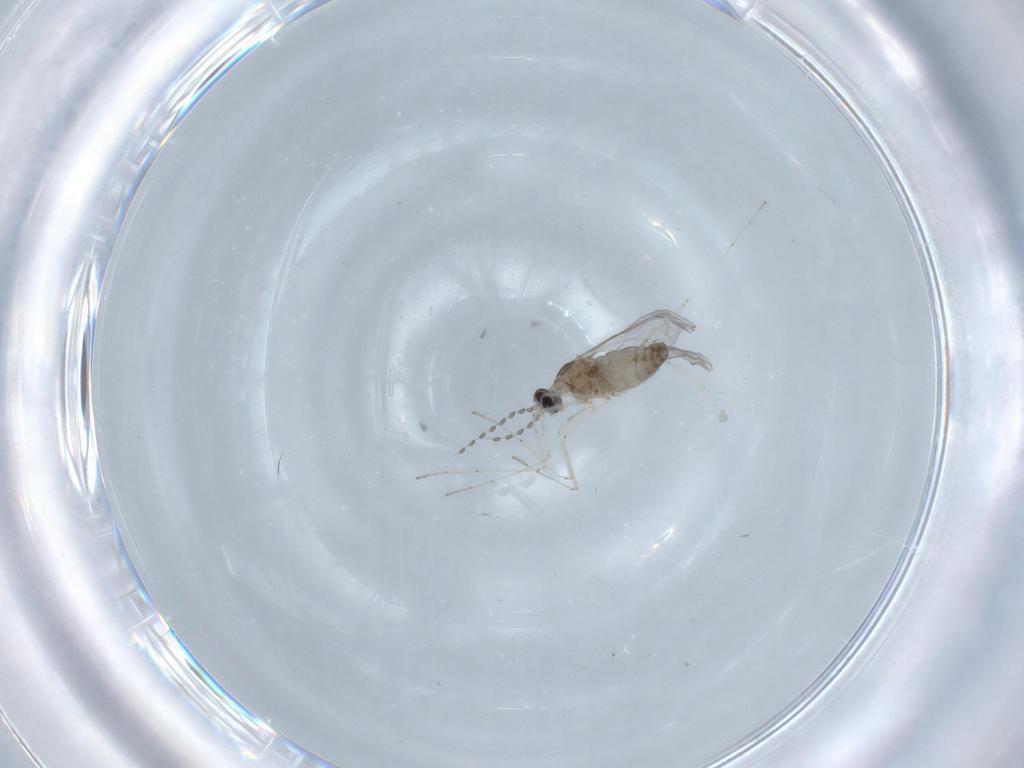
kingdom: Animalia
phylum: Arthropoda
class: Insecta
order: Diptera
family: Cecidomyiidae
